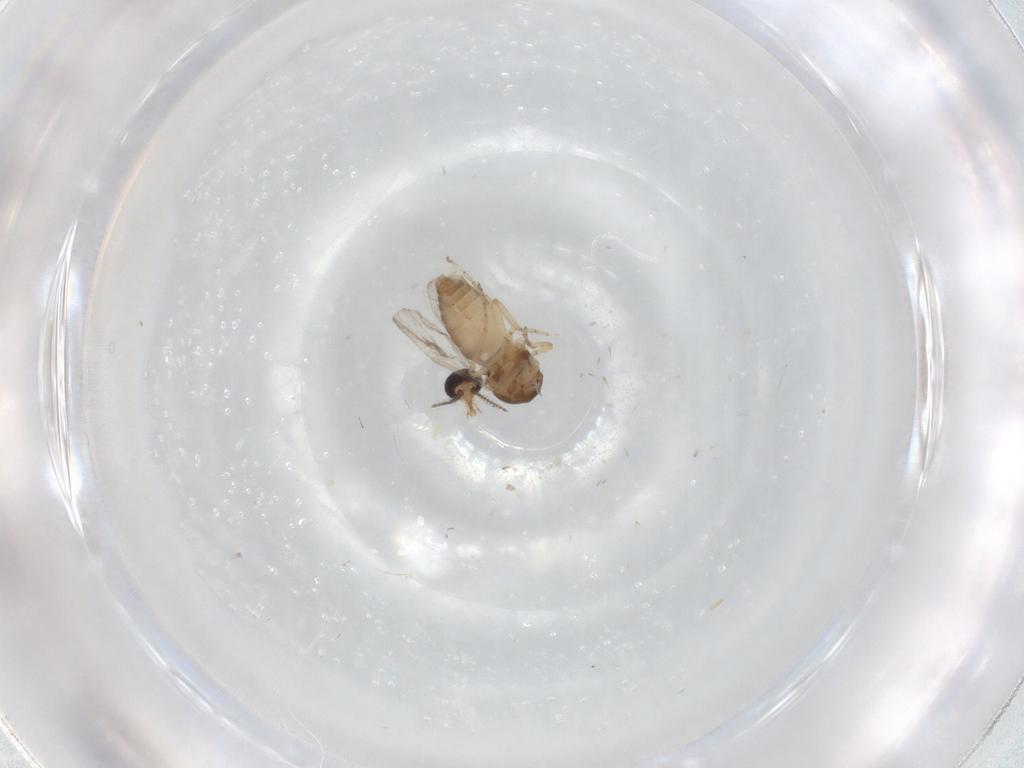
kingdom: Animalia
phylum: Arthropoda
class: Insecta
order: Diptera
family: Ceratopogonidae
